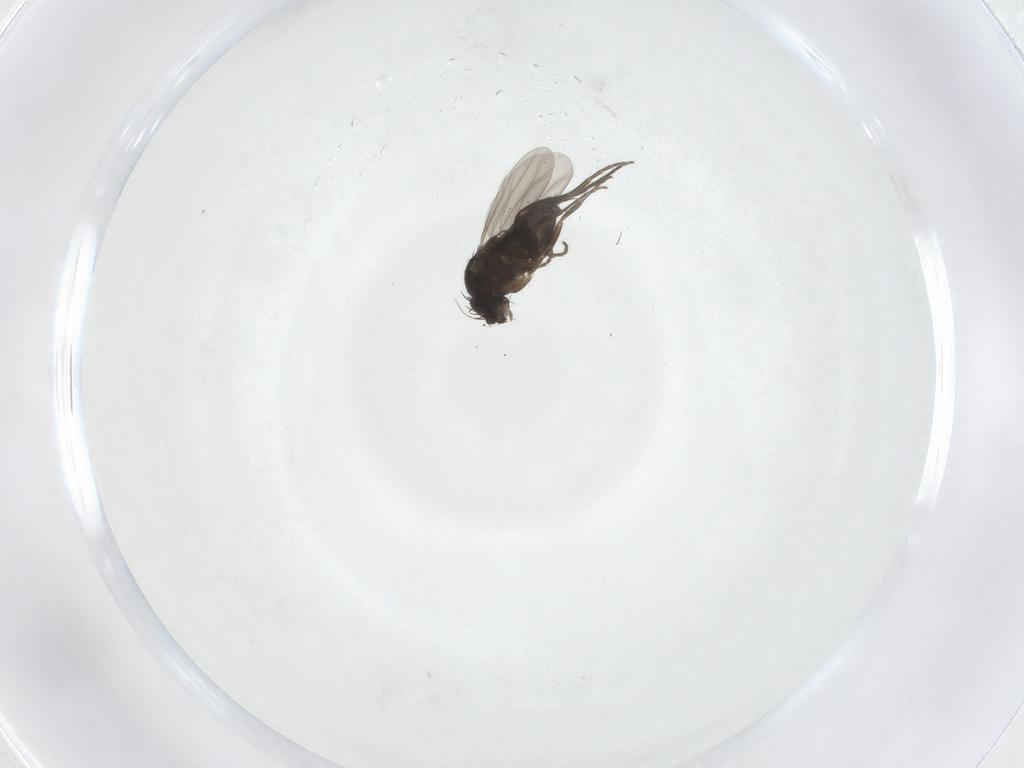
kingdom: Animalia
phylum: Arthropoda
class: Insecta
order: Diptera
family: Phoridae
